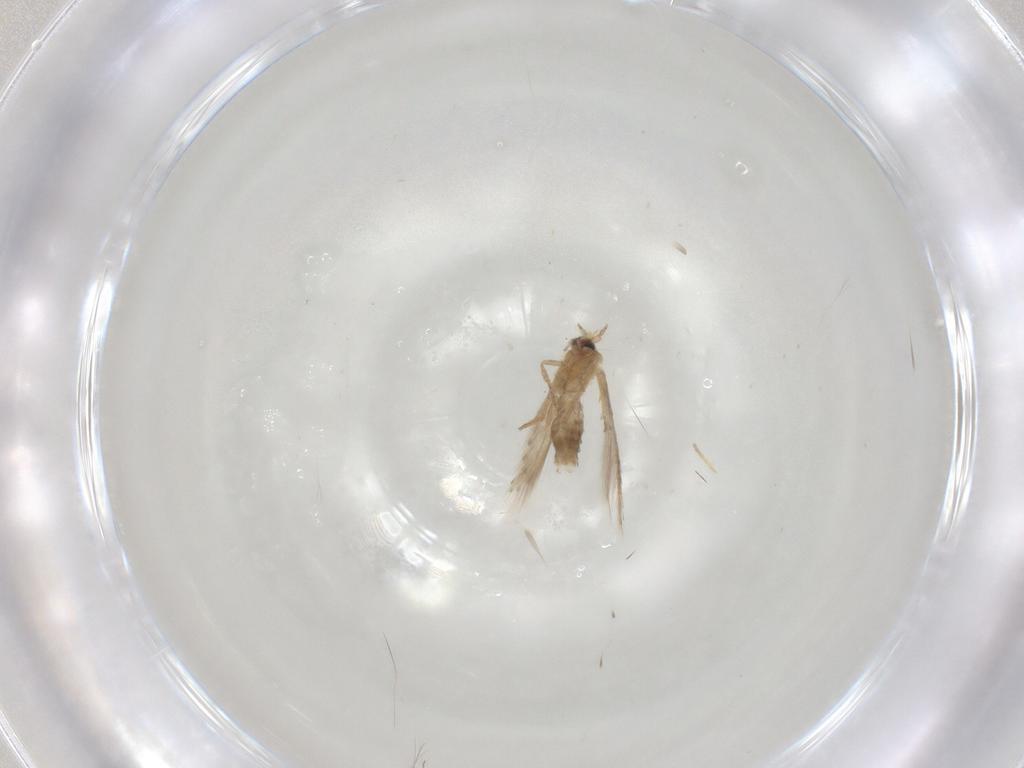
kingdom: Animalia
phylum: Arthropoda
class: Insecta
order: Lepidoptera
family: Nepticulidae
